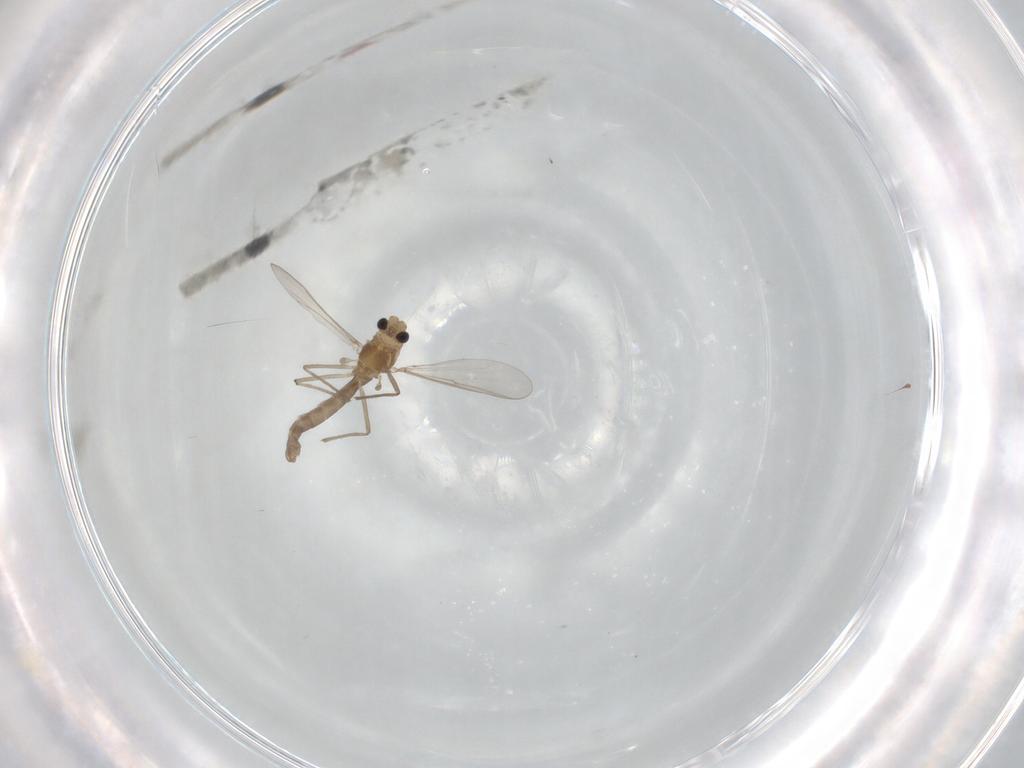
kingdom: Animalia
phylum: Arthropoda
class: Insecta
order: Diptera
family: Chironomidae
